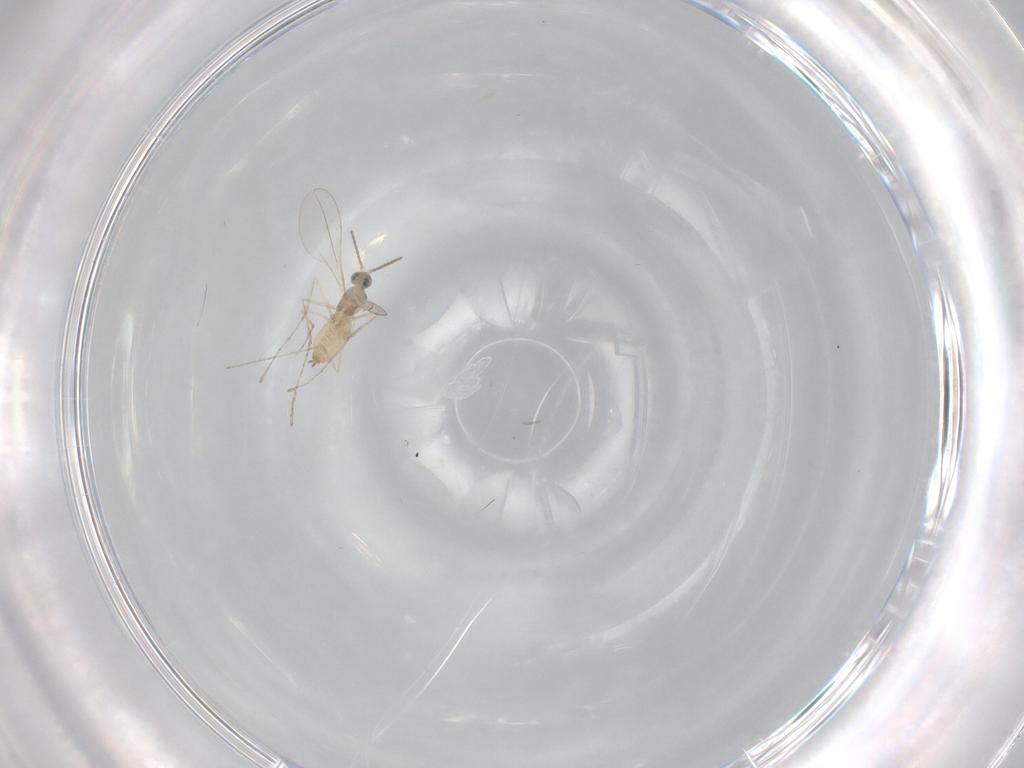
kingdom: Animalia
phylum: Arthropoda
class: Insecta
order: Diptera
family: Cecidomyiidae
